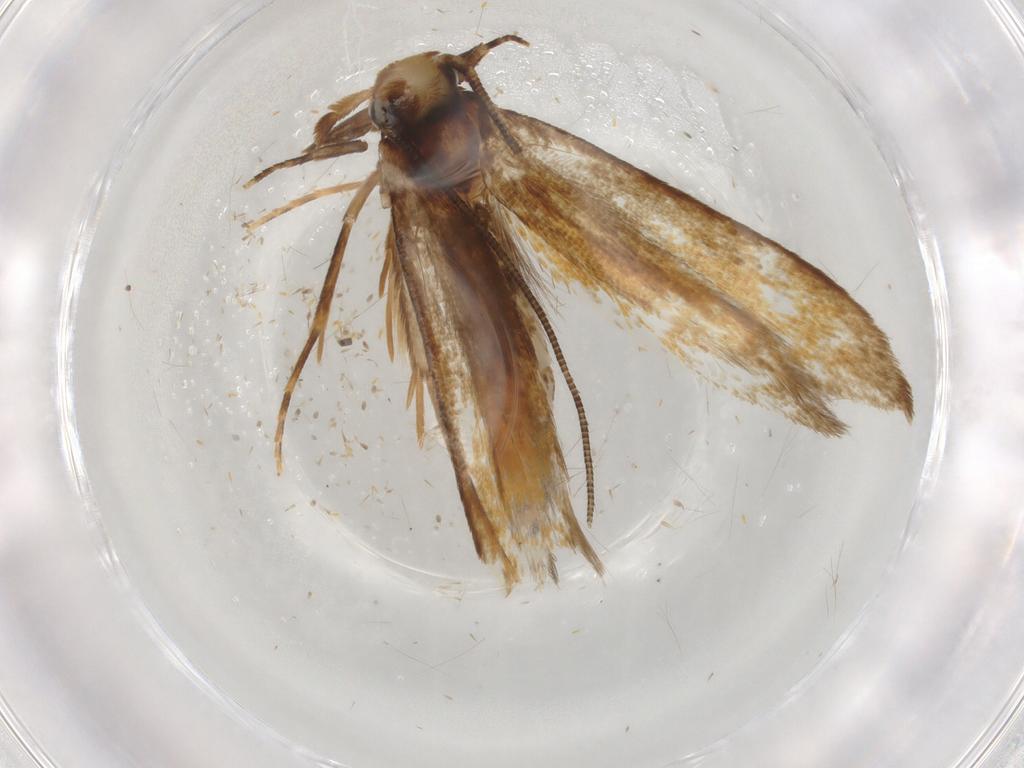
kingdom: Animalia
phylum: Arthropoda
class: Insecta
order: Lepidoptera
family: Tineidae
